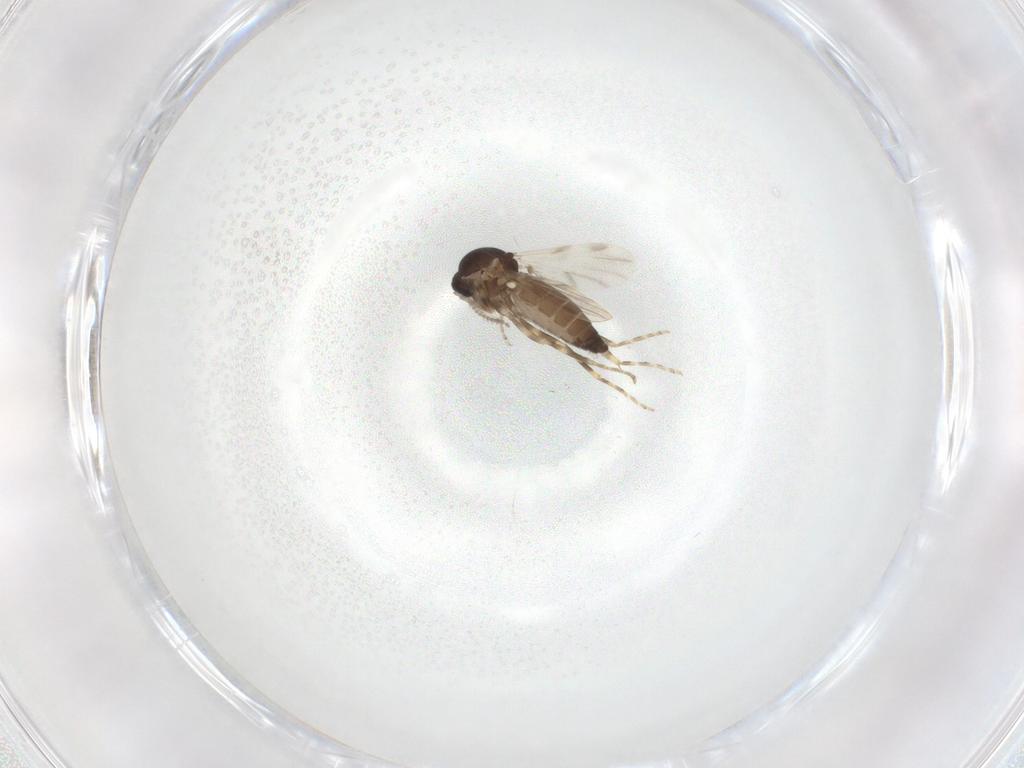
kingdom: Animalia
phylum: Arthropoda
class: Insecta
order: Diptera
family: Ceratopogonidae
